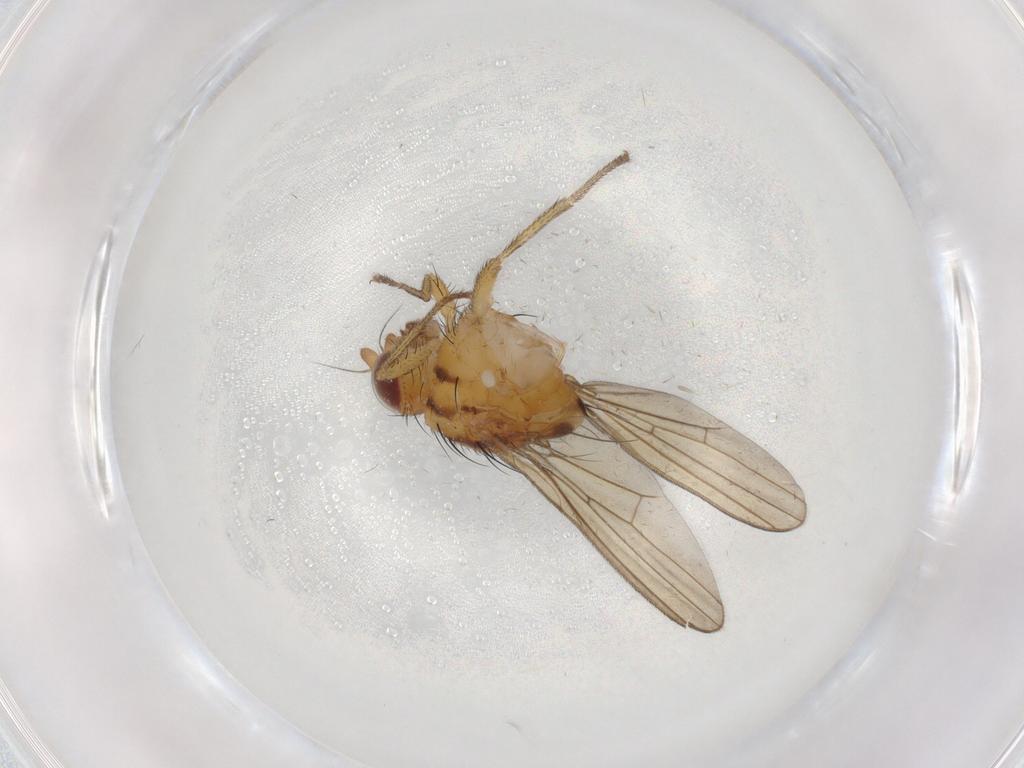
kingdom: Animalia
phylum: Arthropoda
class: Insecta
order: Diptera
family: Lauxaniidae
